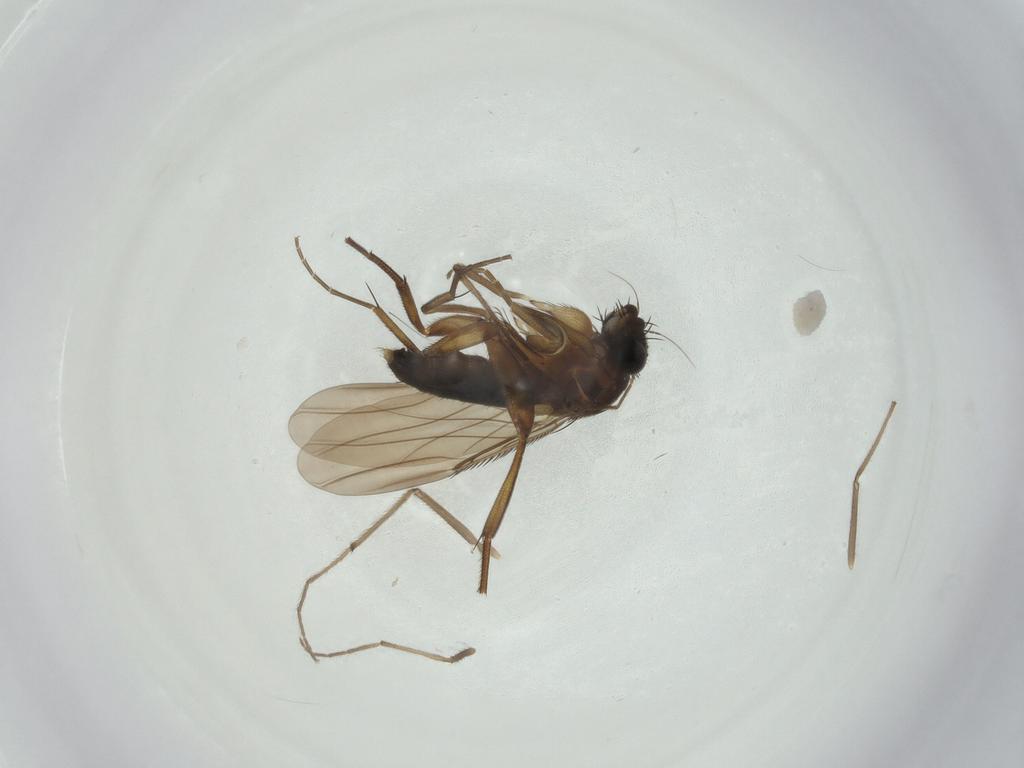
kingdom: Animalia
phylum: Arthropoda
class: Insecta
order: Diptera
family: Phoridae
